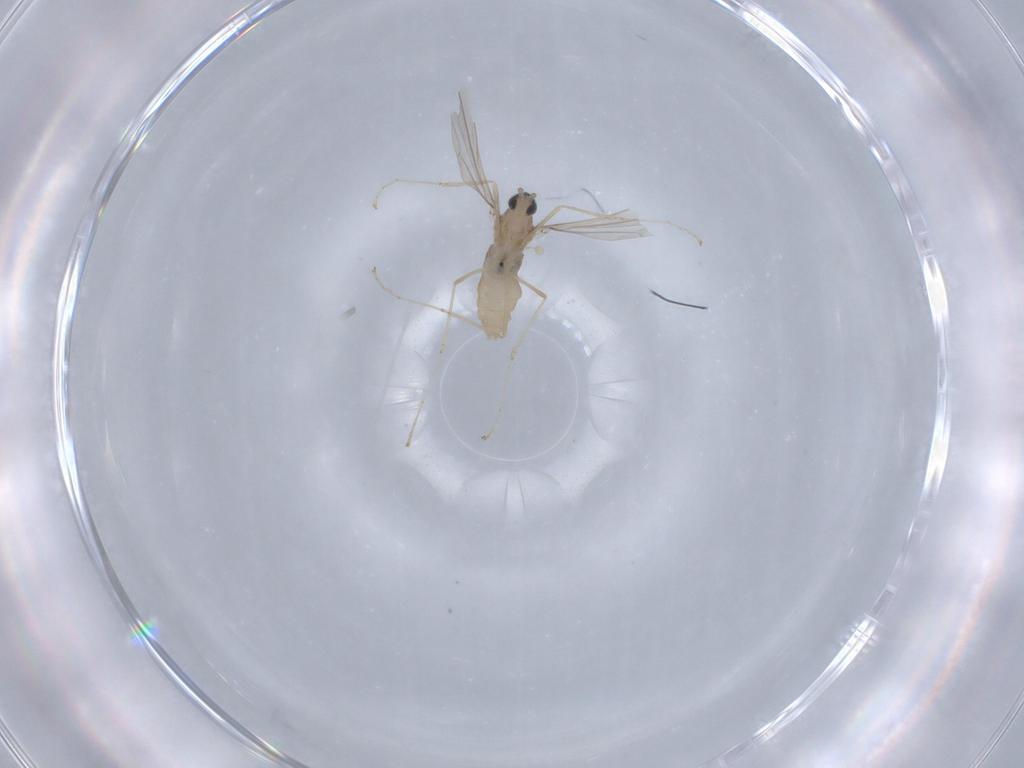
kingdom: Animalia
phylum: Arthropoda
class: Insecta
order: Diptera
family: Cecidomyiidae
